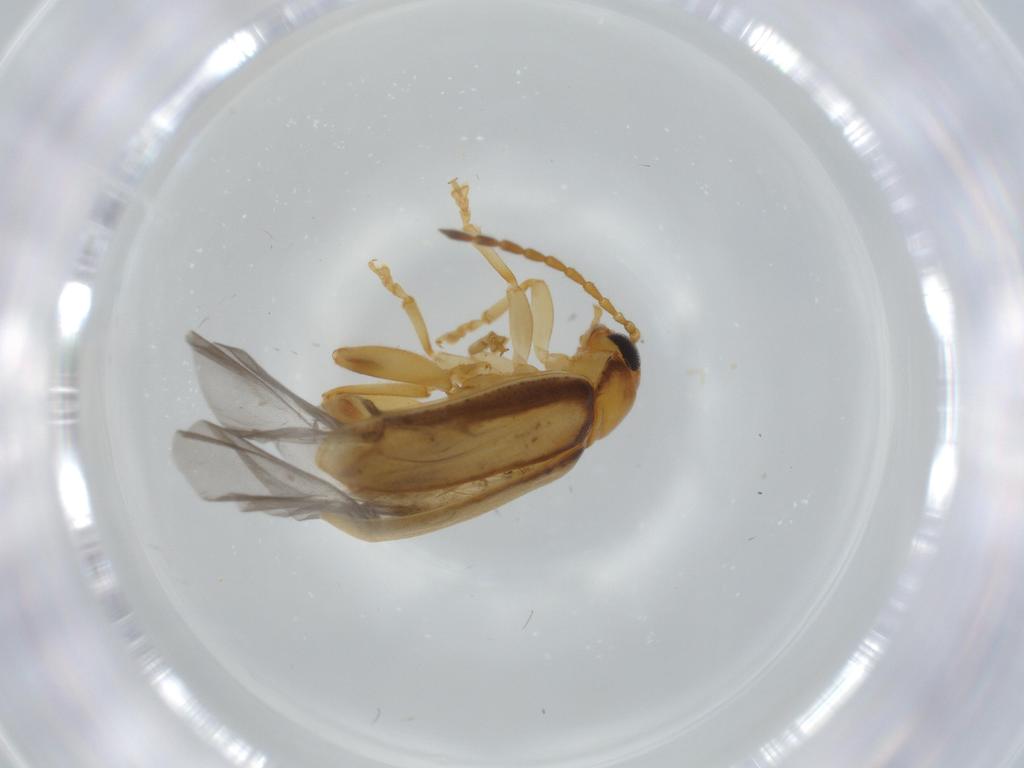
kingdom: Animalia
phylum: Arthropoda
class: Insecta
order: Coleoptera
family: Chrysomelidae
